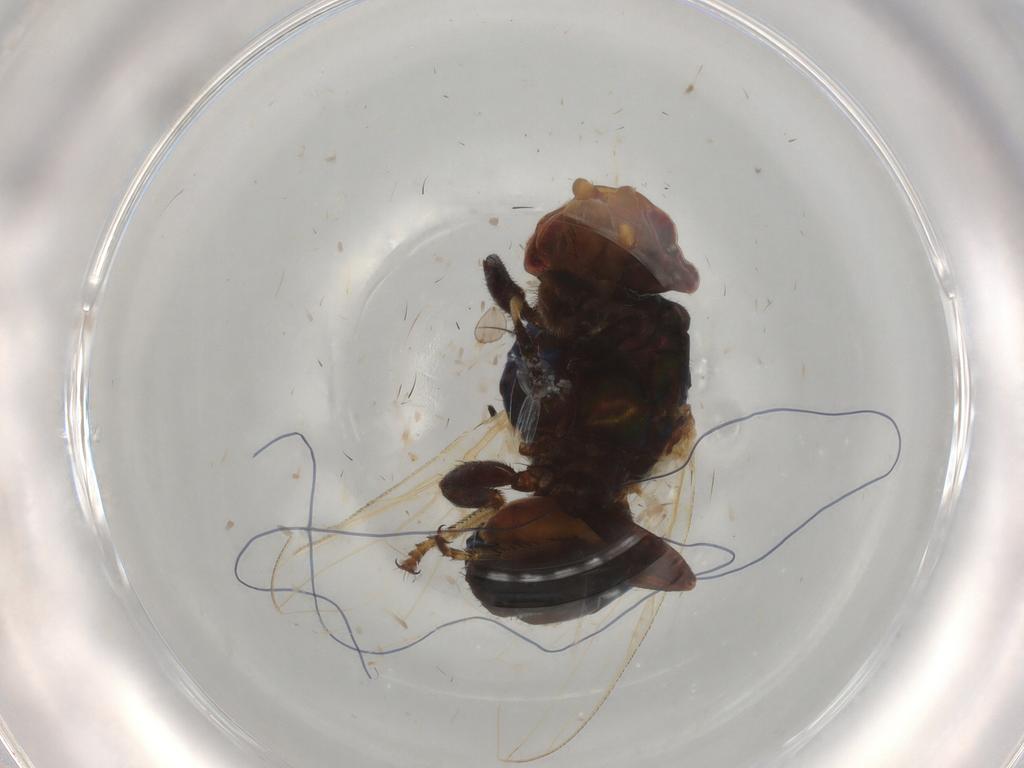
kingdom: Animalia
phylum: Arthropoda
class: Insecta
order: Diptera
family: Ulidiidae
